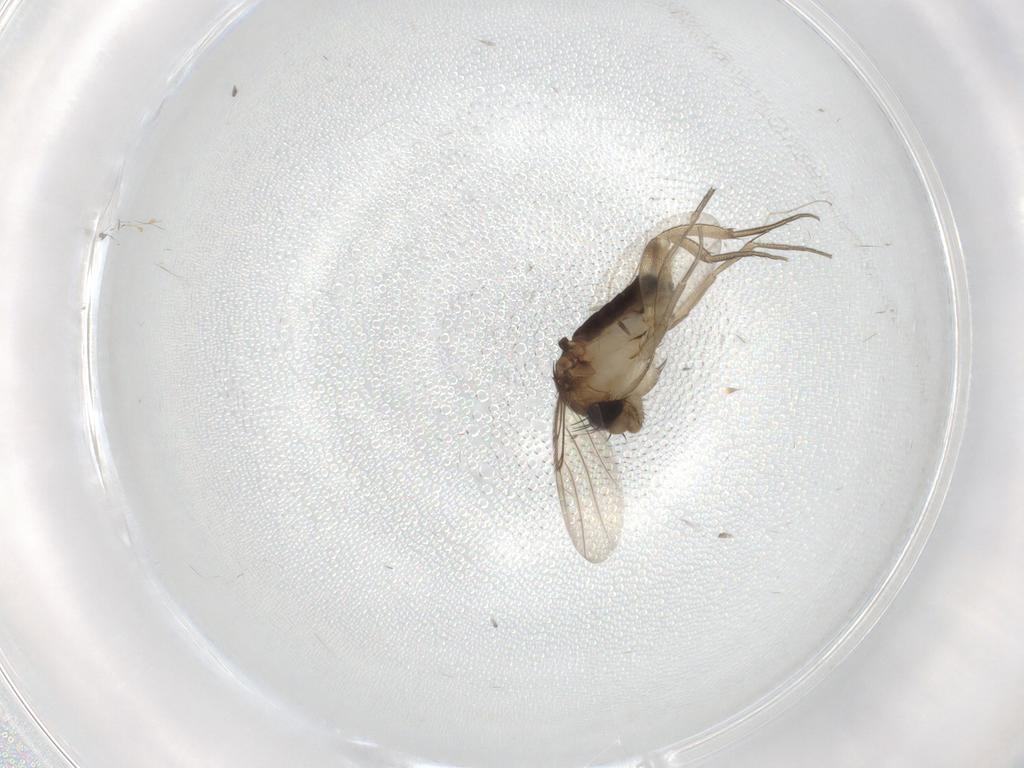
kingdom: Animalia
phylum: Arthropoda
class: Insecta
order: Diptera
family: Phoridae
